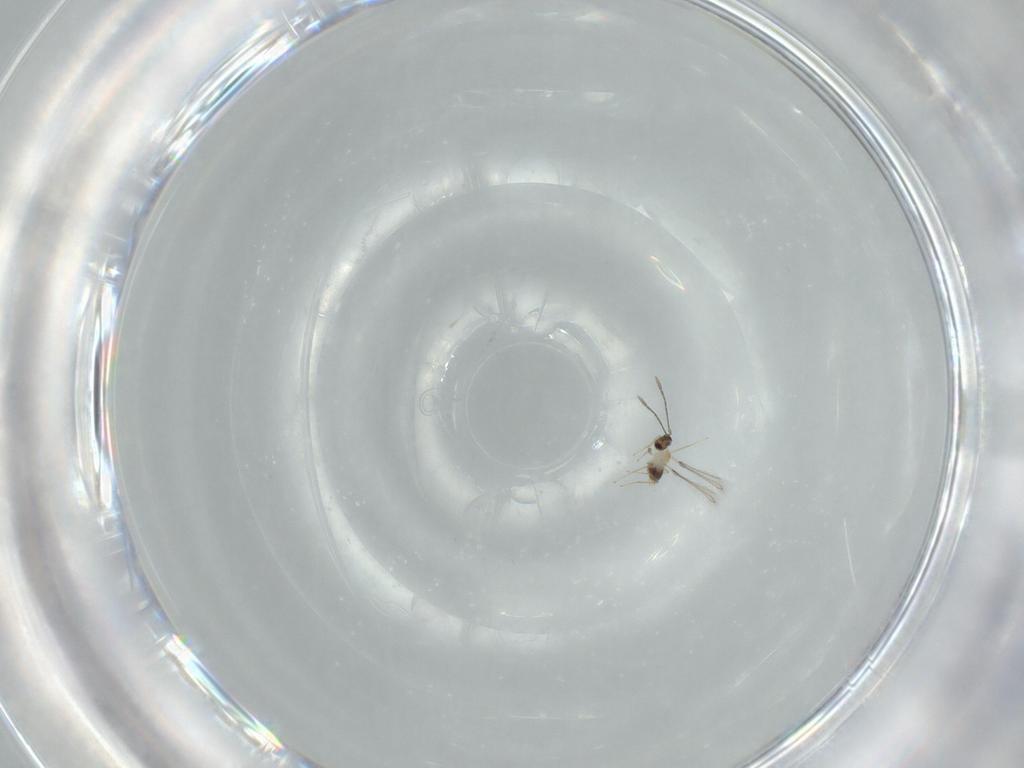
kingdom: Animalia
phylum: Arthropoda
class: Insecta
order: Hymenoptera
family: Mymaridae
